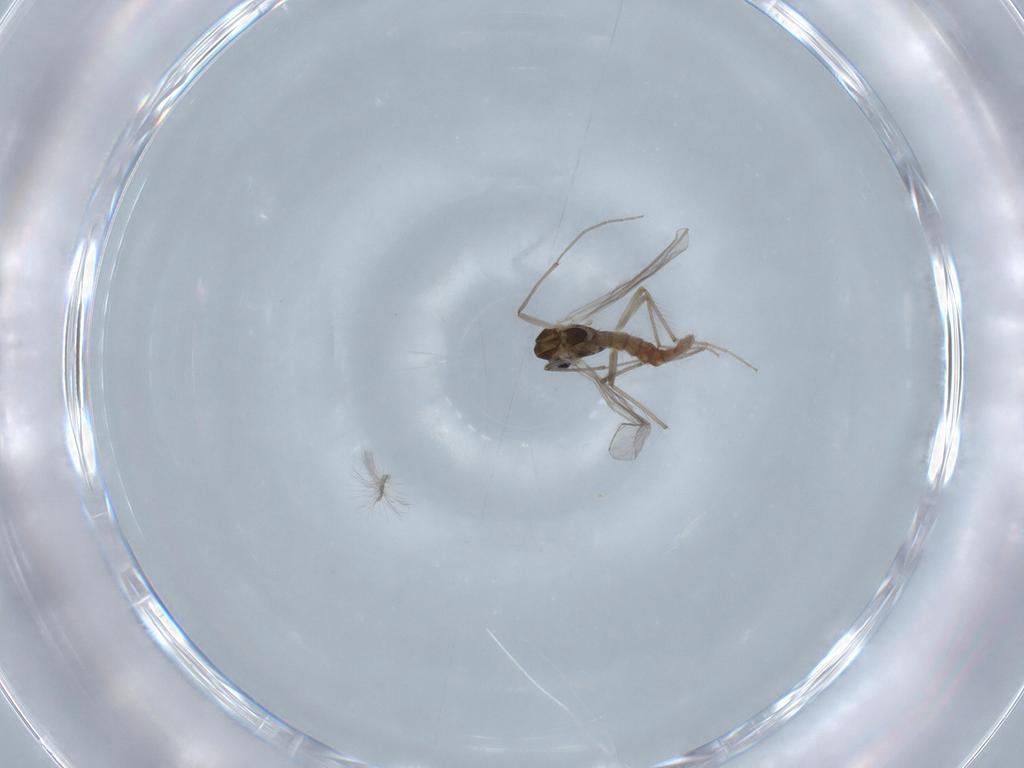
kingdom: Animalia
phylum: Arthropoda
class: Insecta
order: Diptera
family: Chironomidae
